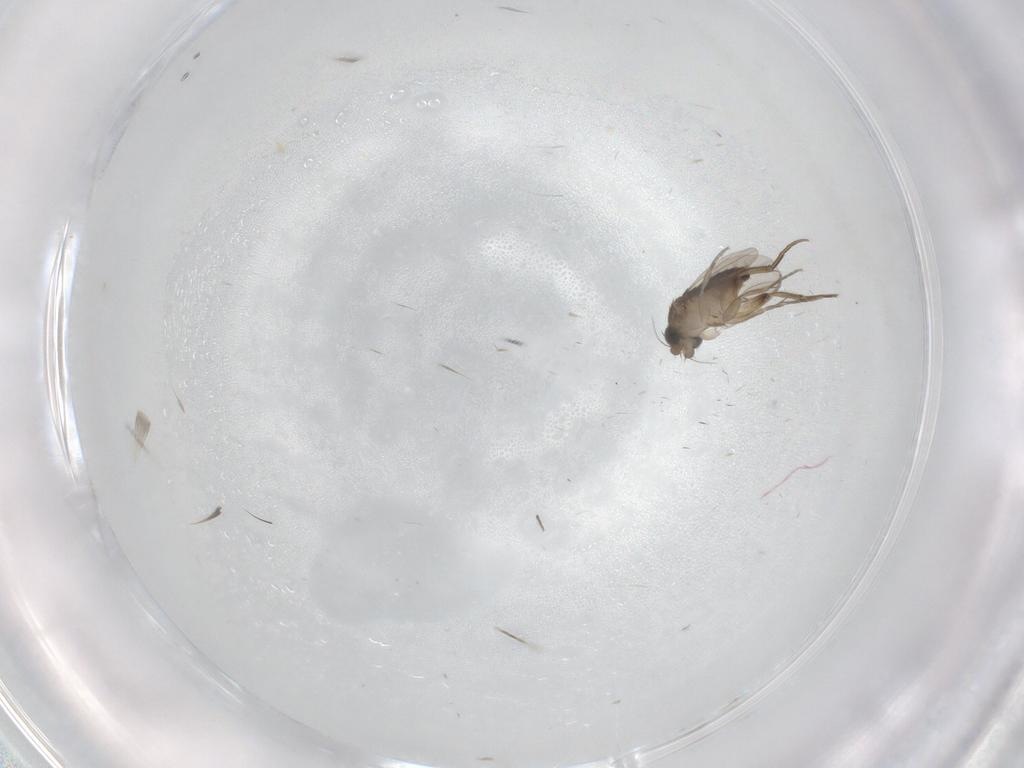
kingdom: Animalia
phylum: Arthropoda
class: Insecta
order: Diptera
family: Phoridae
